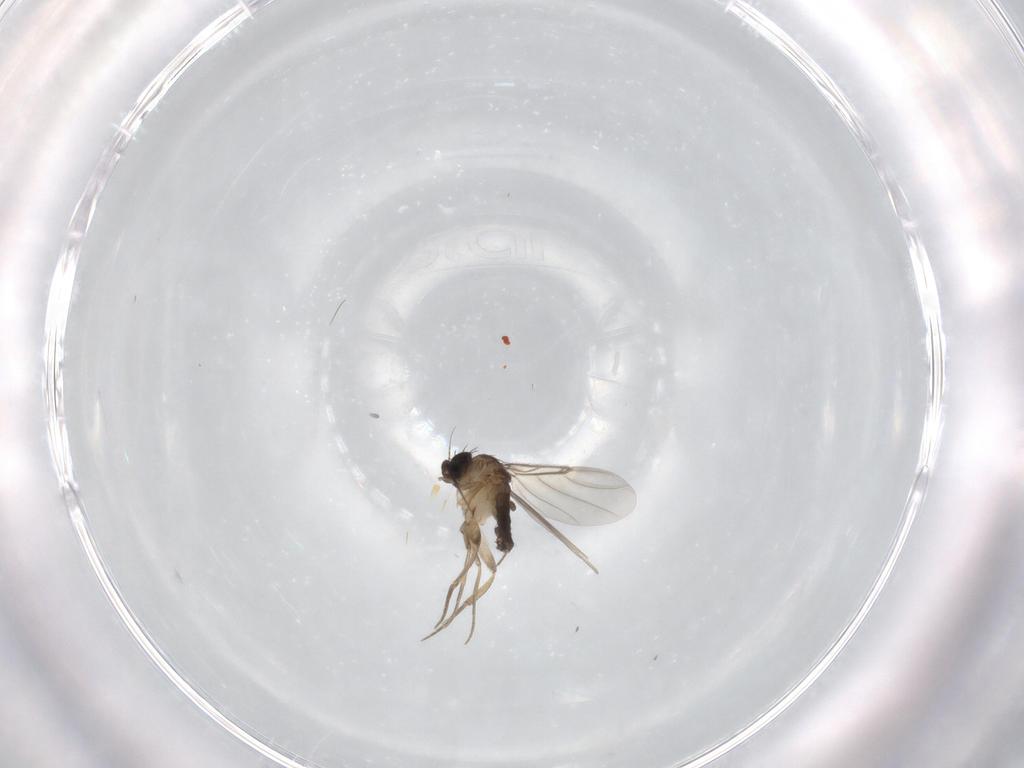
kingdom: Animalia
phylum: Arthropoda
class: Insecta
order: Diptera
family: Phoridae
